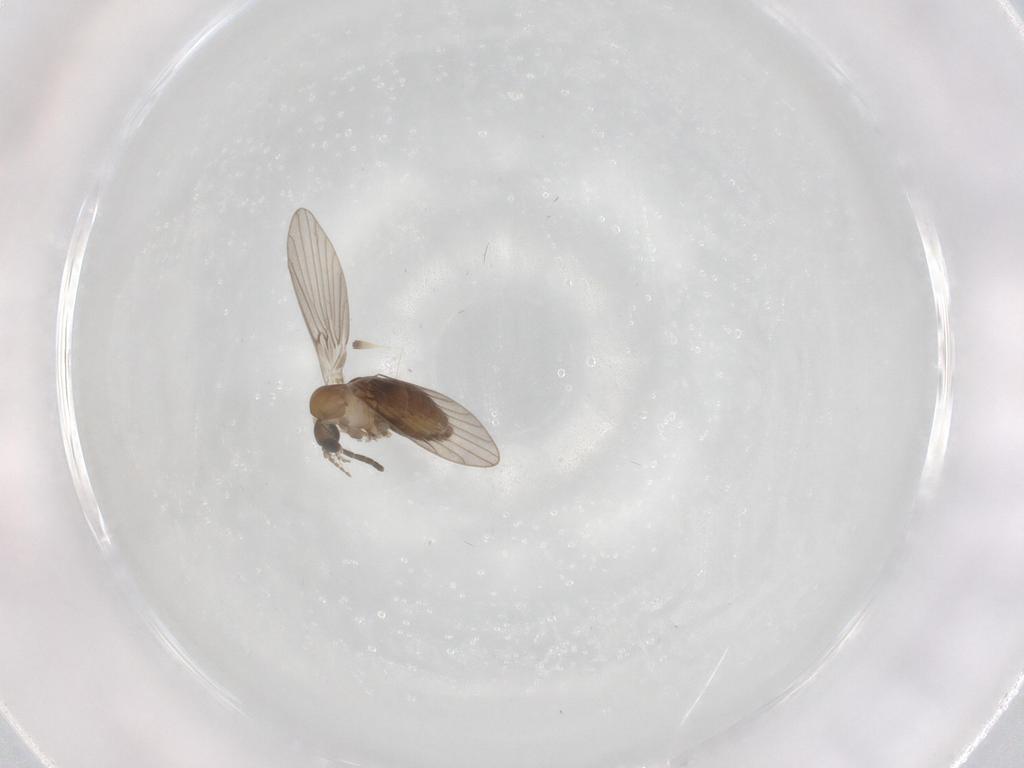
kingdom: Animalia
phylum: Arthropoda
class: Insecta
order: Diptera
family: Psychodidae
